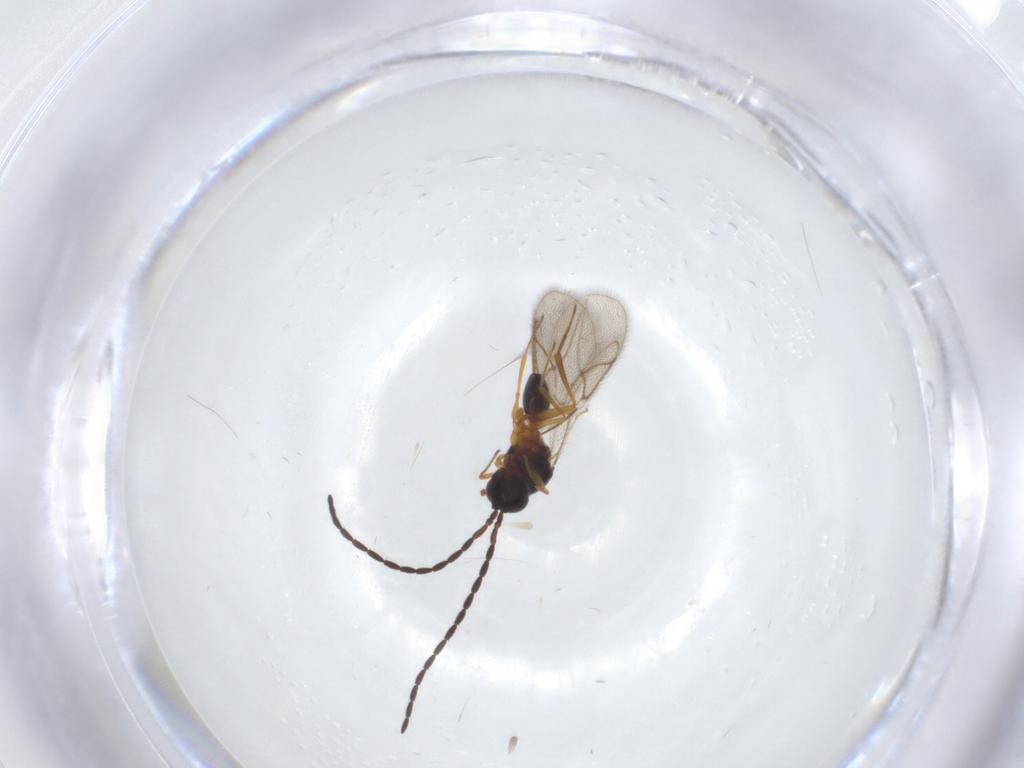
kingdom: Animalia
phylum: Arthropoda
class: Insecta
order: Hymenoptera
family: Figitidae
